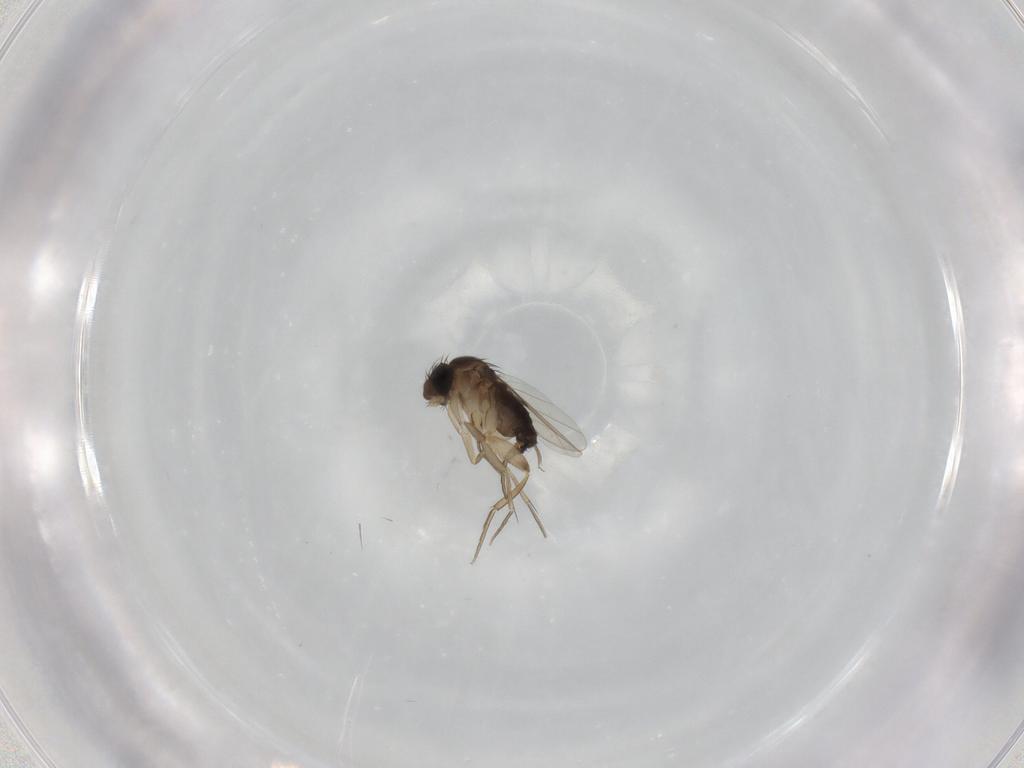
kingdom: Animalia
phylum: Arthropoda
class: Insecta
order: Diptera
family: Phoridae
